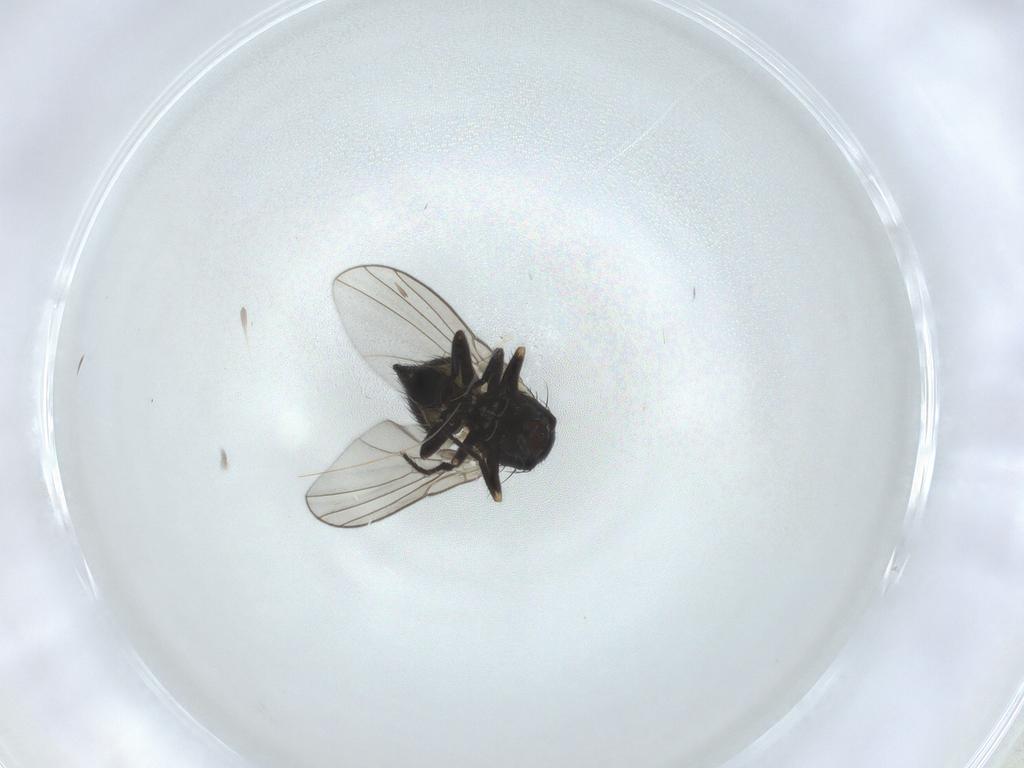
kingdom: Animalia
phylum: Arthropoda
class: Insecta
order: Diptera
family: Agromyzidae
